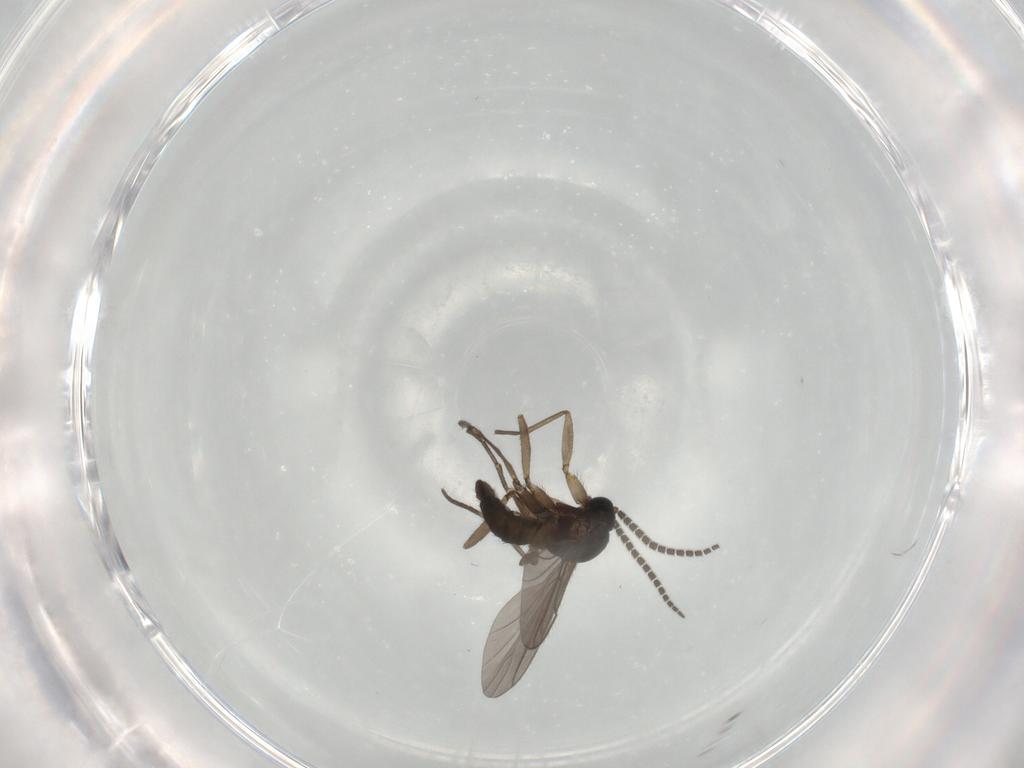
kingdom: Animalia
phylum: Arthropoda
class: Insecta
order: Diptera
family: Sciaridae
